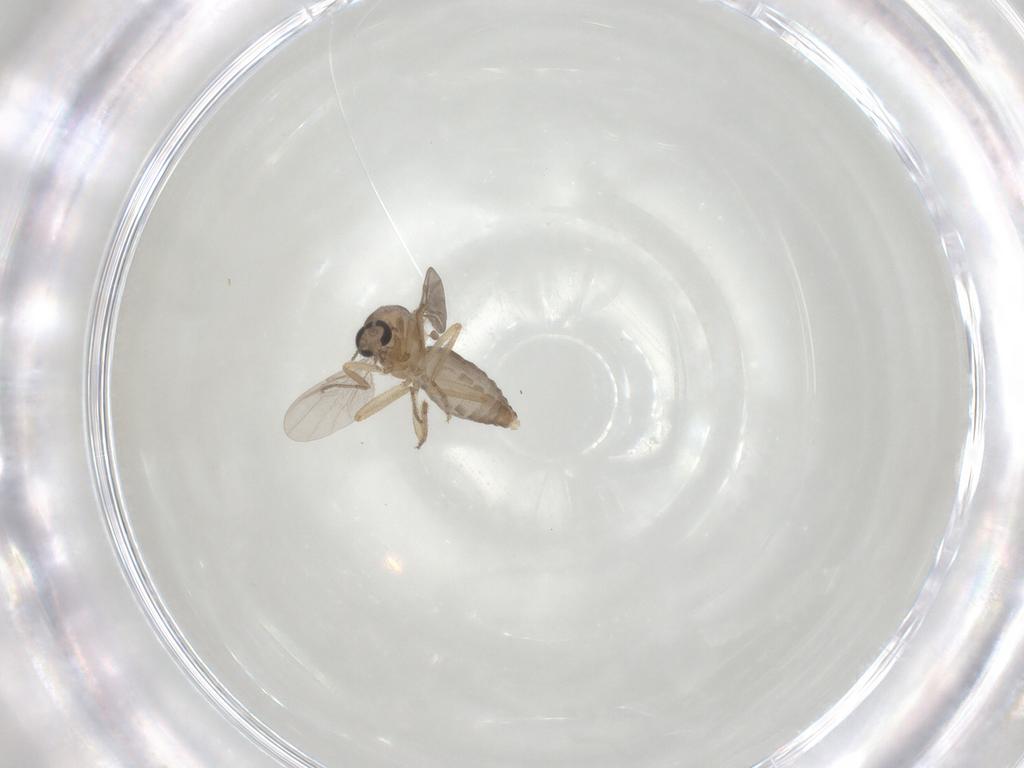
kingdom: Animalia
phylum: Arthropoda
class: Insecta
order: Diptera
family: Ceratopogonidae
